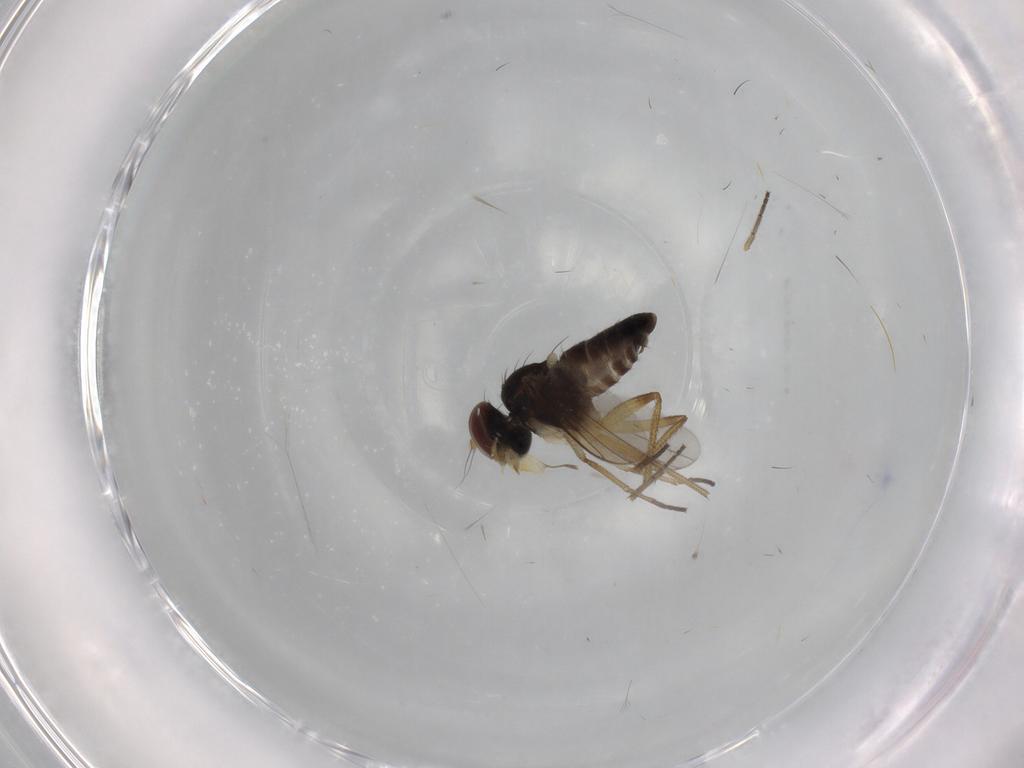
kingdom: Animalia
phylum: Arthropoda
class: Insecta
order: Diptera
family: Dolichopodidae
